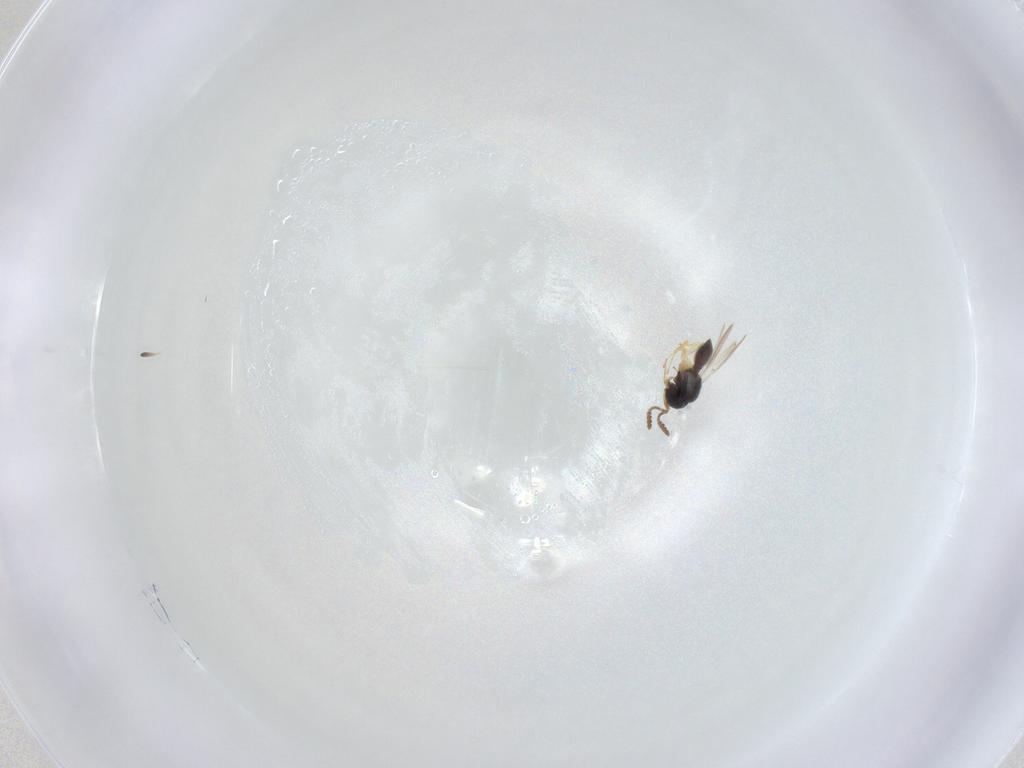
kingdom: Animalia
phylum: Arthropoda
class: Insecta
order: Hymenoptera
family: Scelionidae
